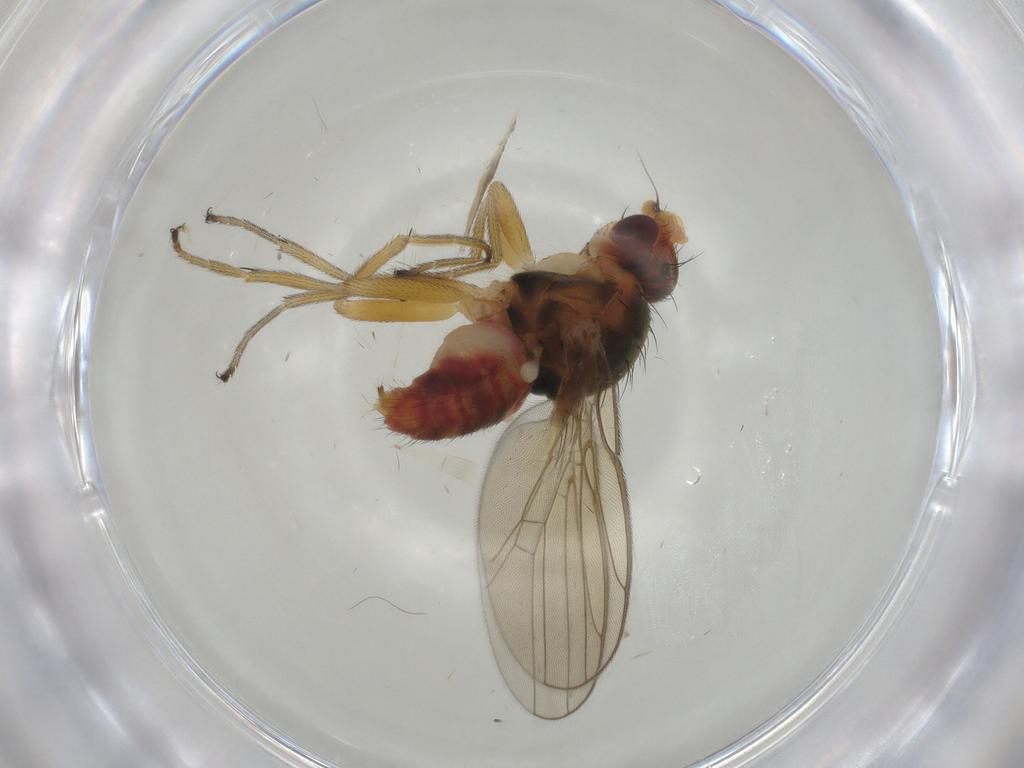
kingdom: Animalia
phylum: Arthropoda
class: Insecta
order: Diptera
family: Chloropidae
